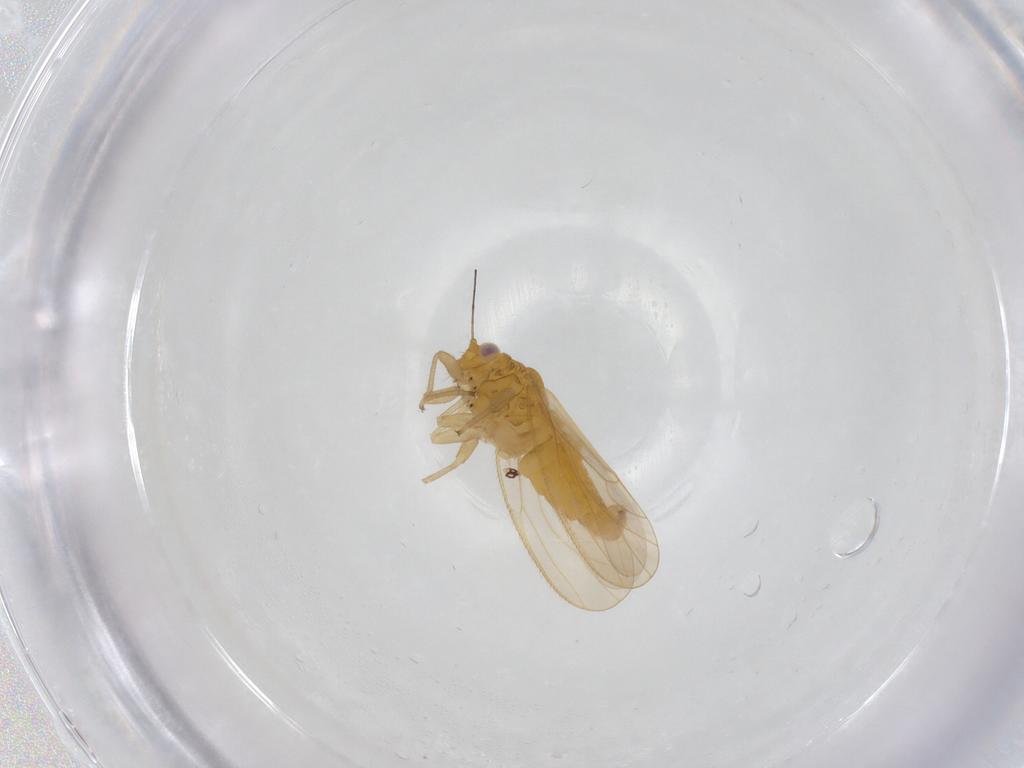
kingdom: Animalia
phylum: Arthropoda
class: Insecta
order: Hemiptera
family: Psyllidae
